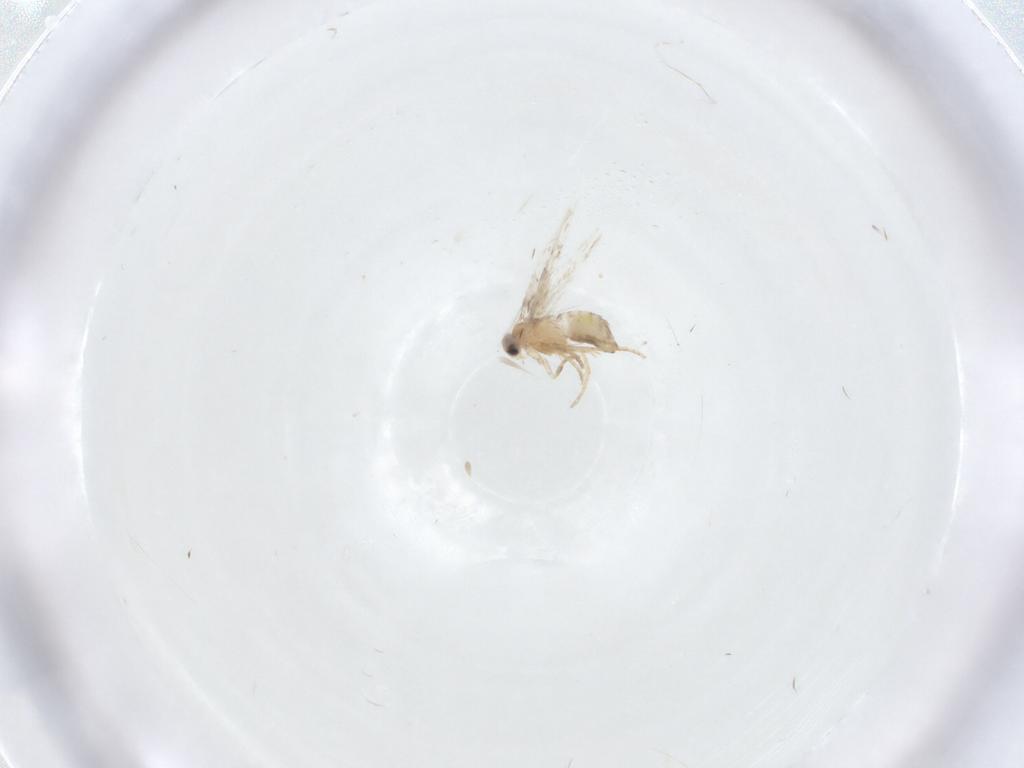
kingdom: Animalia
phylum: Arthropoda
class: Insecta
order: Lepidoptera
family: Nepticulidae
